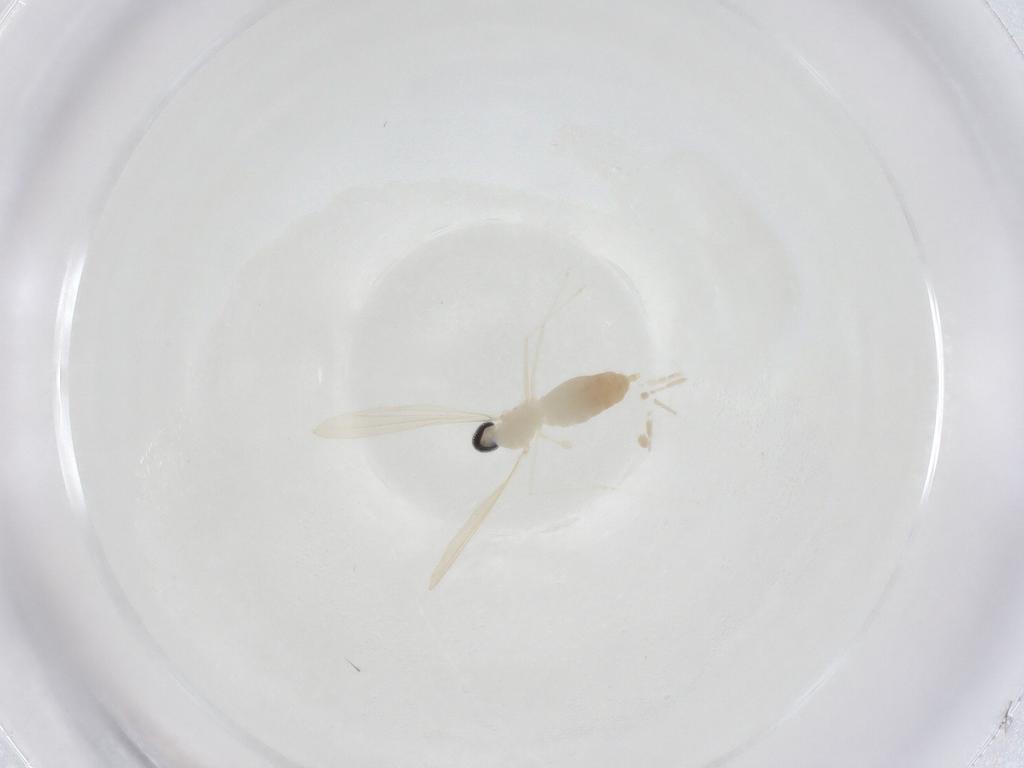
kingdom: Animalia
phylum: Arthropoda
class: Insecta
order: Diptera
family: Cecidomyiidae
